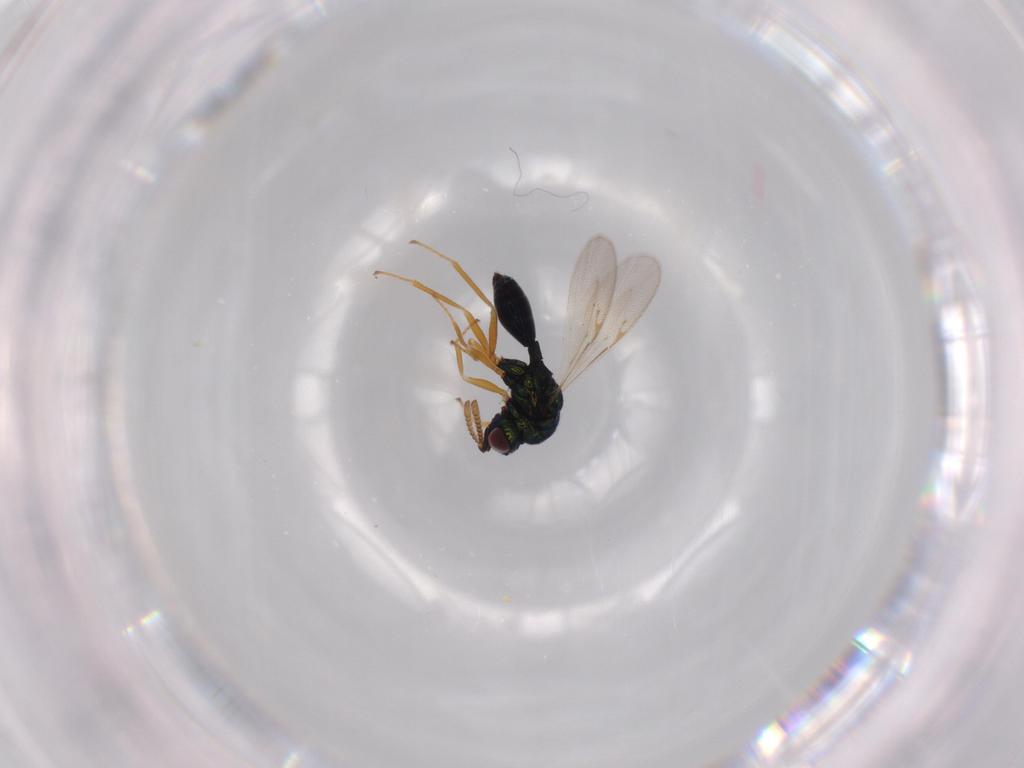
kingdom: Animalia
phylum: Arthropoda
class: Insecta
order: Hymenoptera
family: Chalcidoidea_incertae_sedis
